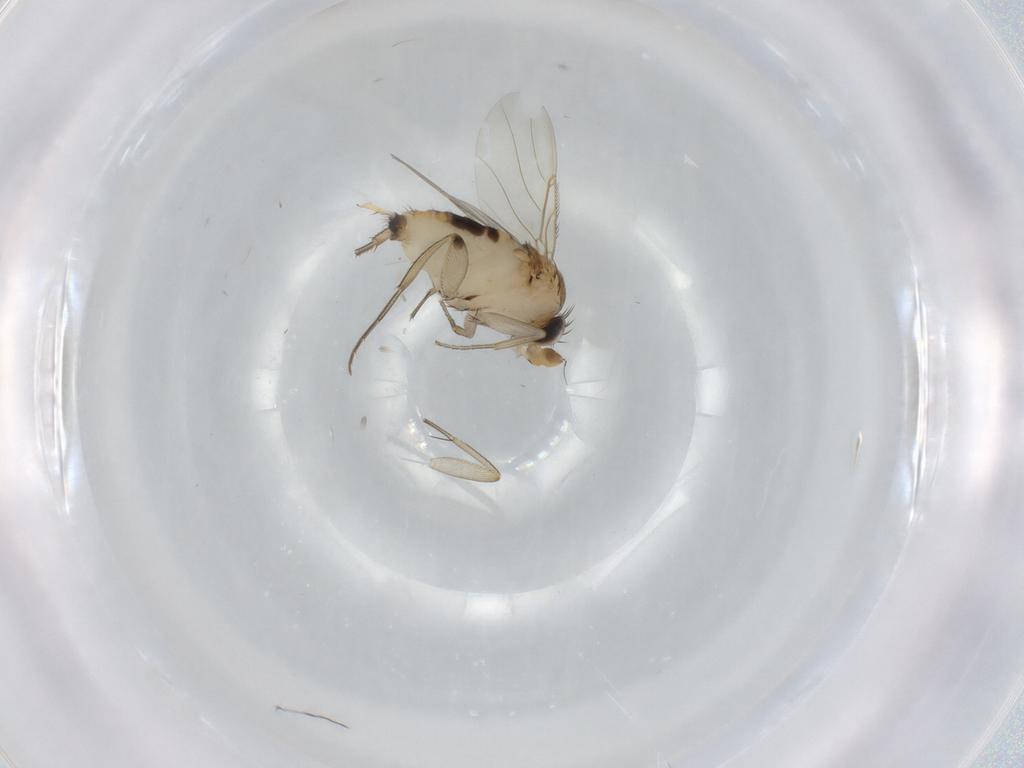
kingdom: Animalia
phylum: Arthropoda
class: Insecta
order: Diptera
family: Phoridae
